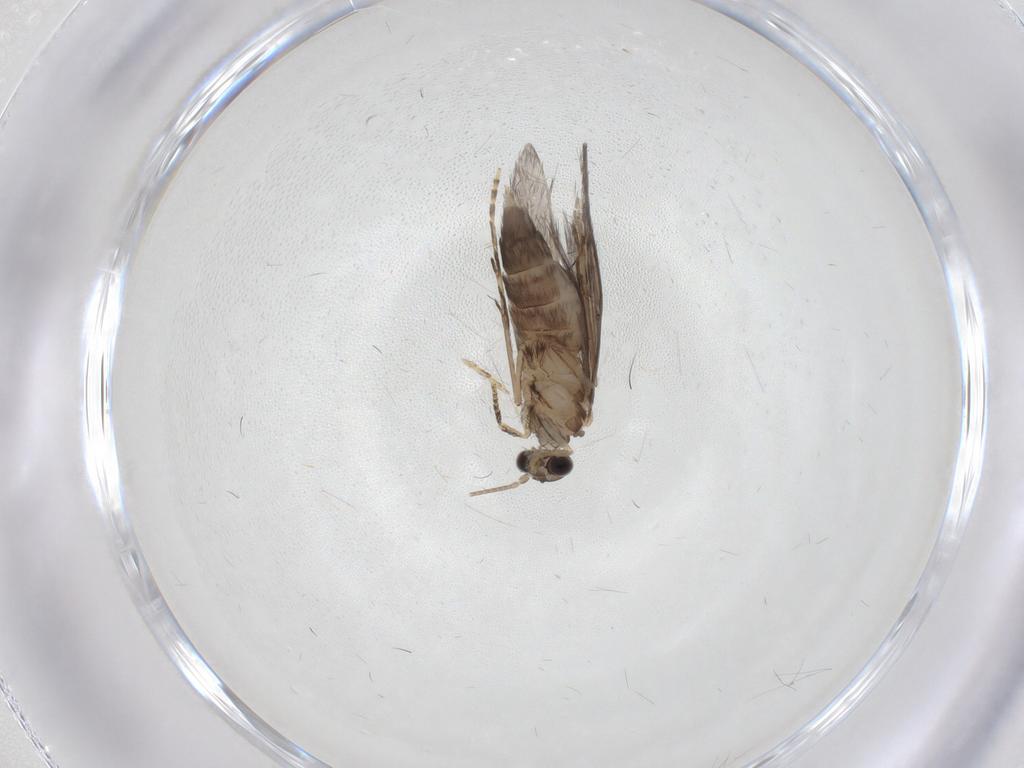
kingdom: Animalia
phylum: Arthropoda
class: Insecta
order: Trichoptera
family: Hydroptilidae
